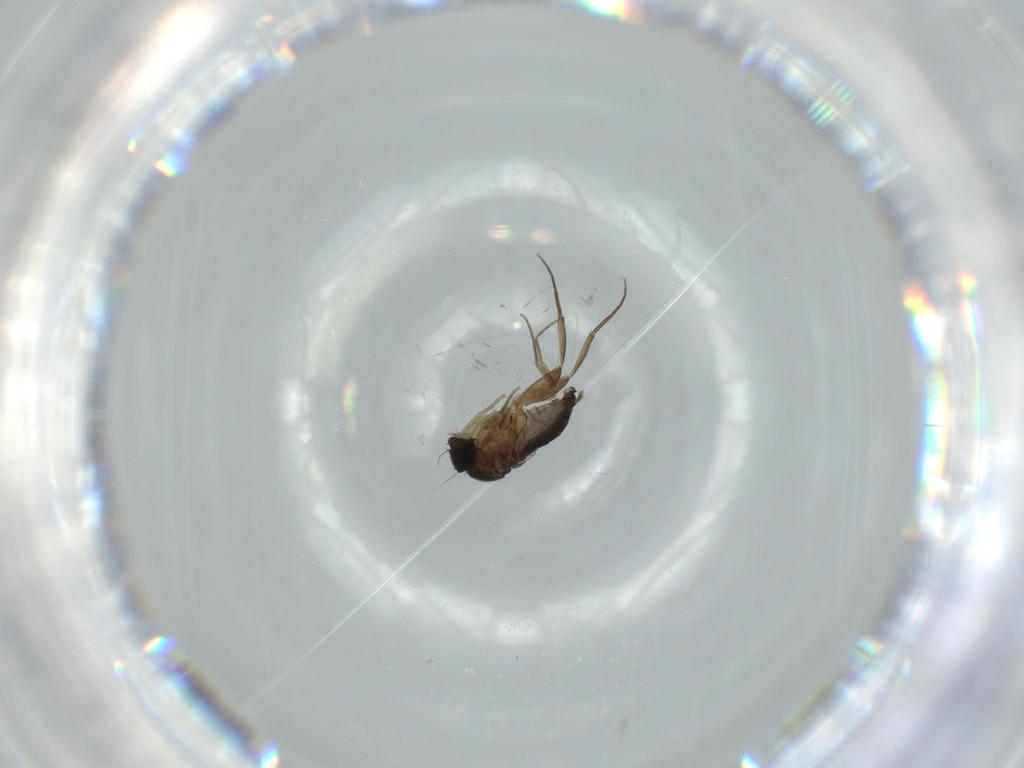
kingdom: Animalia
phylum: Arthropoda
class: Insecta
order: Diptera
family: Phoridae
